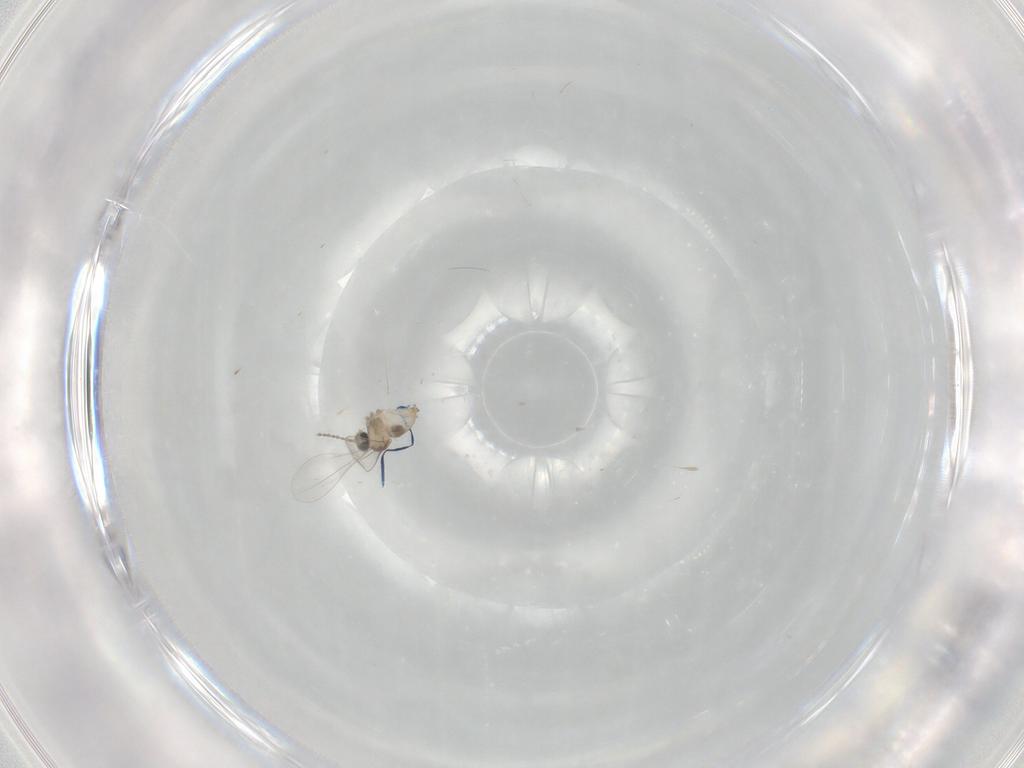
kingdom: Animalia
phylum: Arthropoda
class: Insecta
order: Diptera
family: Cecidomyiidae
